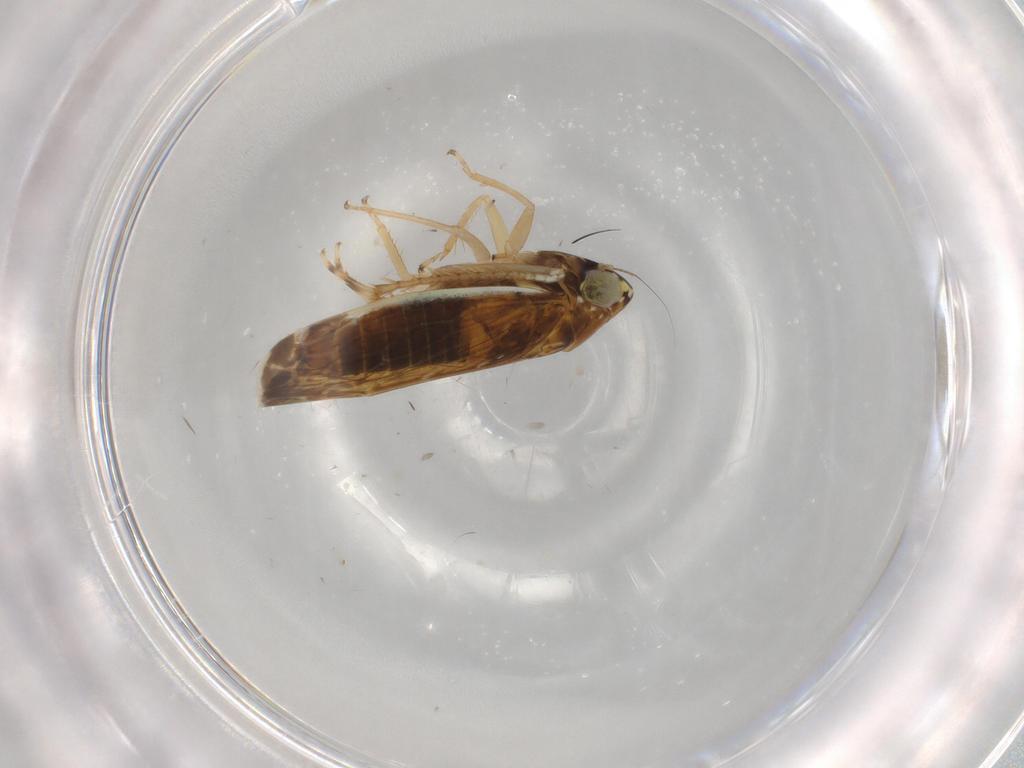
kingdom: Animalia
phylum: Arthropoda
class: Insecta
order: Hemiptera
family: Cicadellidae
